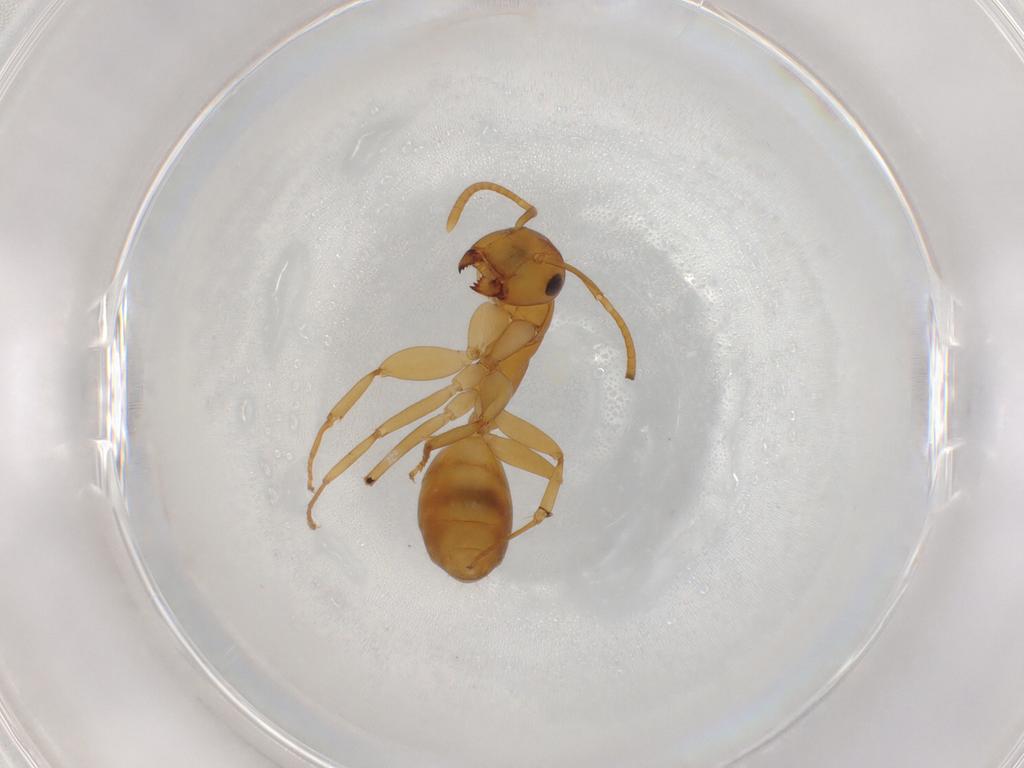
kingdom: Animalia
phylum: Arthropoda
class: Insecta
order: Hymenoptera
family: Formicidae
